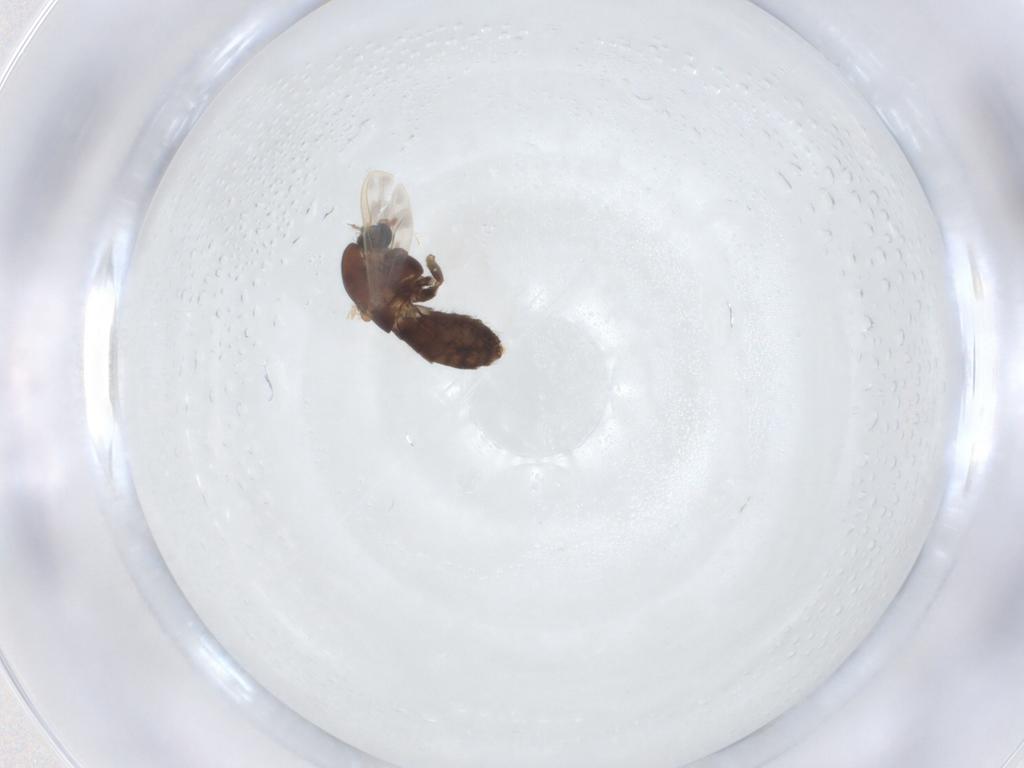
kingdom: Animalia
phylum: Arthropoda
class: Insecta
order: Diptera
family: Chironomidae
